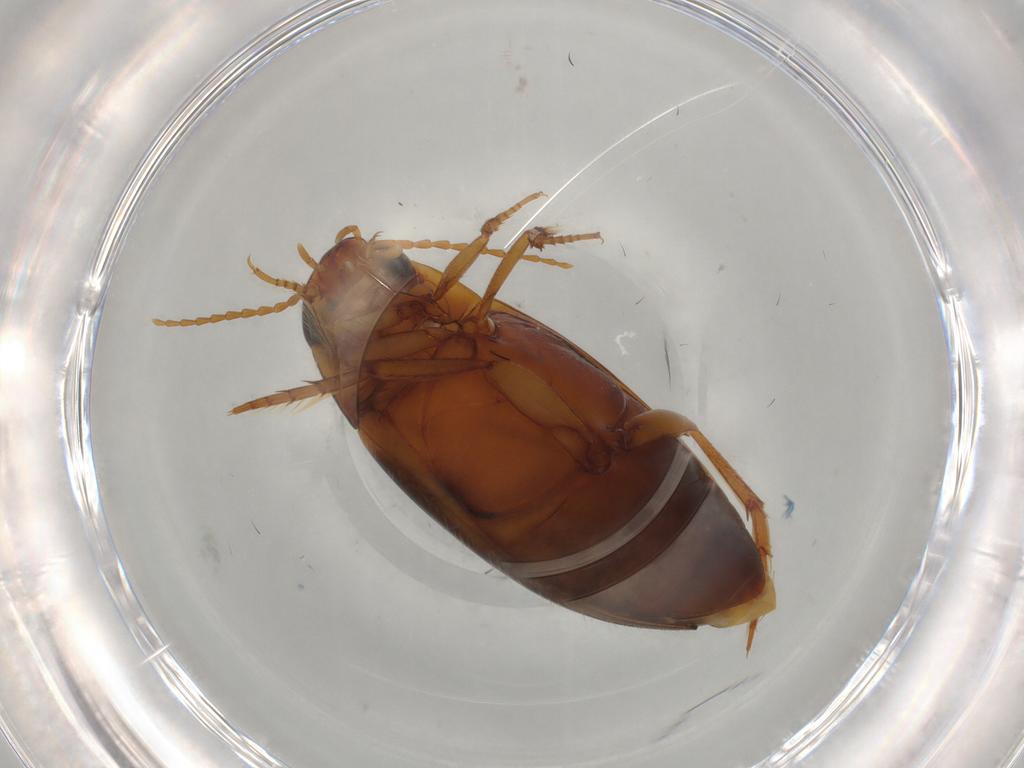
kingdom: Animalia
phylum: Arthropoda
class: Insecta
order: Coleoptera
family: Dytiscidae
